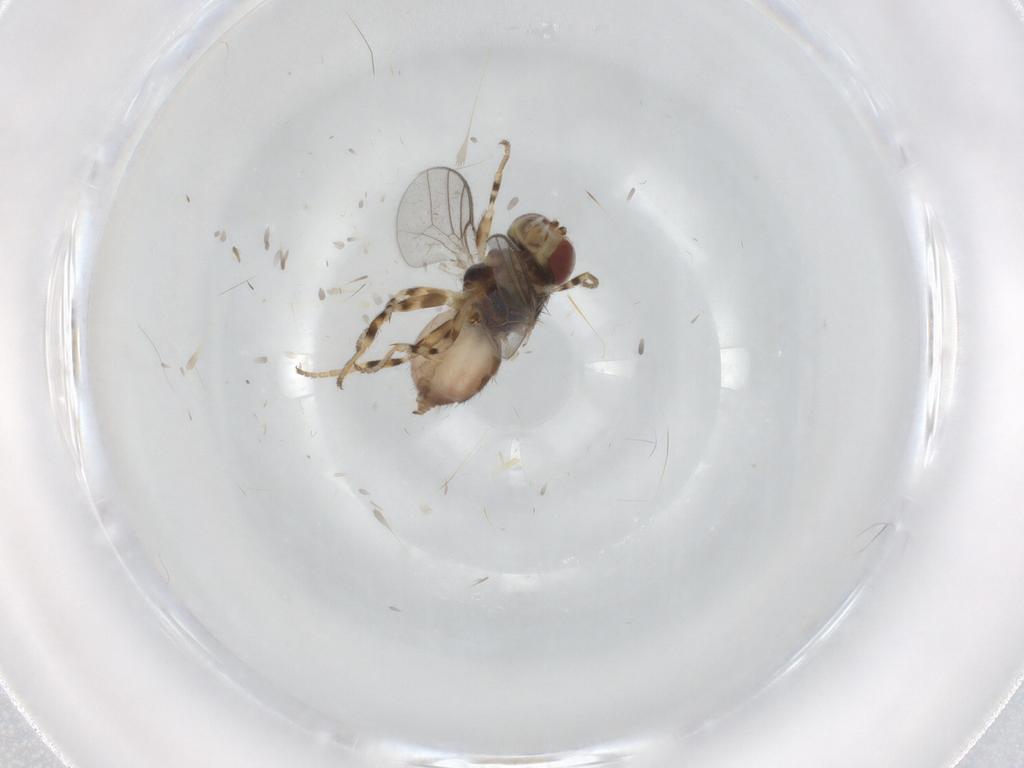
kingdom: Animalia
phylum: Arthropoda
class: Insecta
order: Diptera
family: Chloropidae
